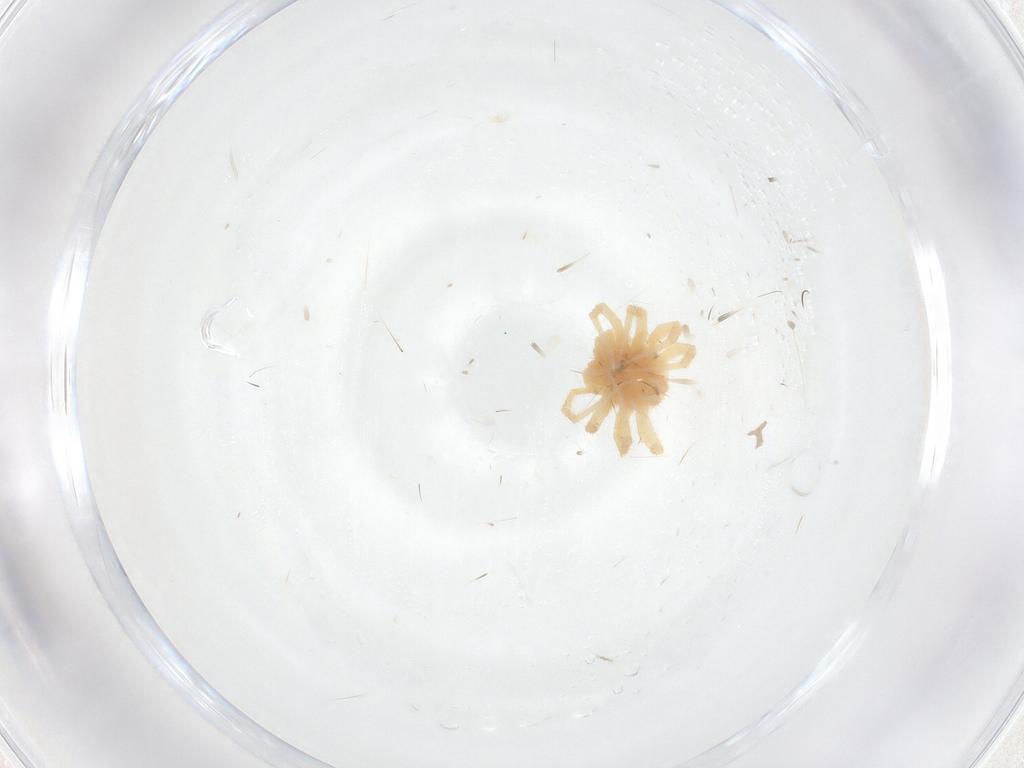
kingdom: Animalia
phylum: Arthropoda
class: Arachnida
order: Trombidiformes
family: Anystidae
